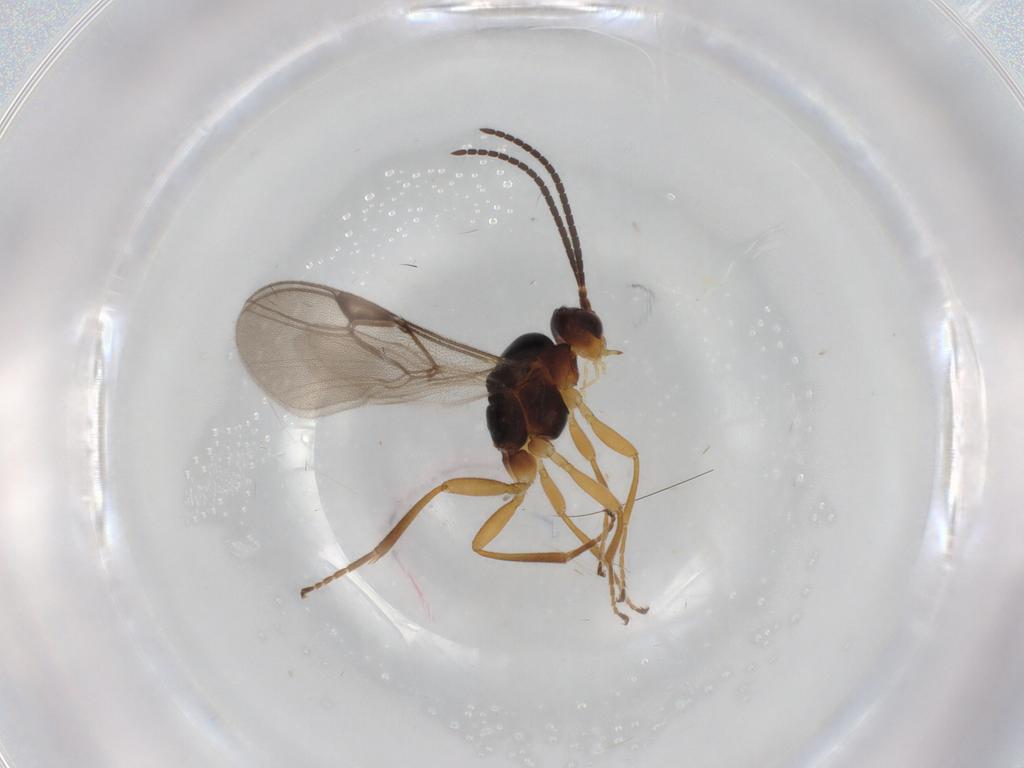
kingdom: Animalia
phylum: Arthropoda
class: Insecta
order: Hymenoptera
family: Braconidae
